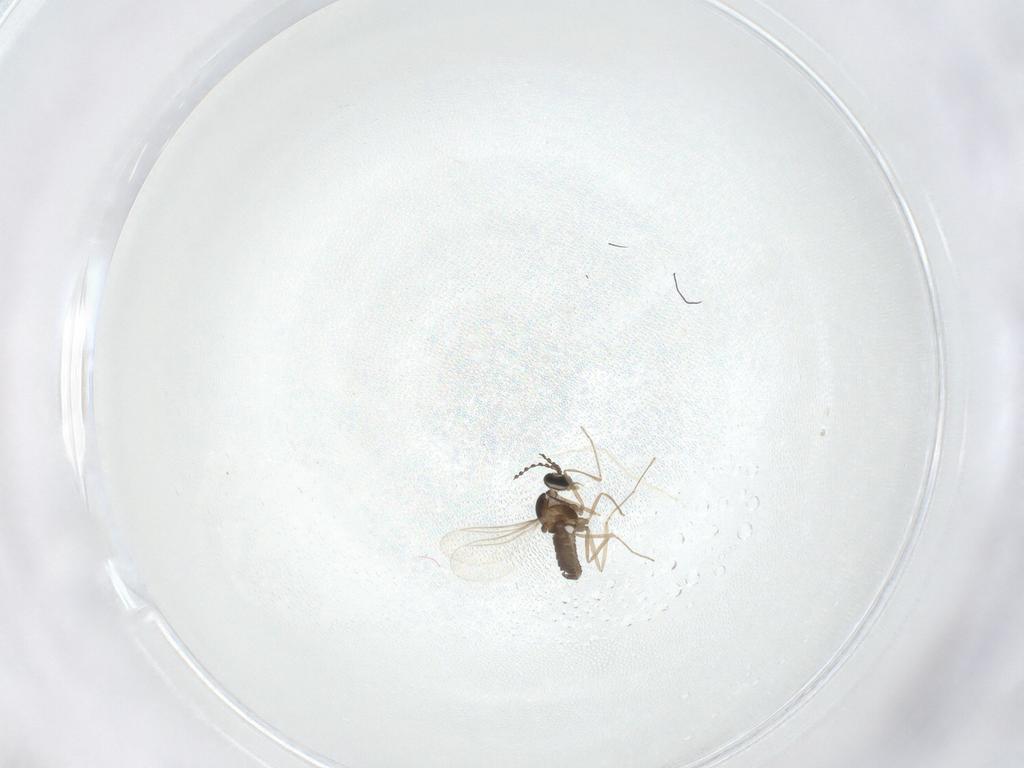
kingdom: Animalia
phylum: Arthropoda
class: Insecta
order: Diptera
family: Cecidomyiidae
